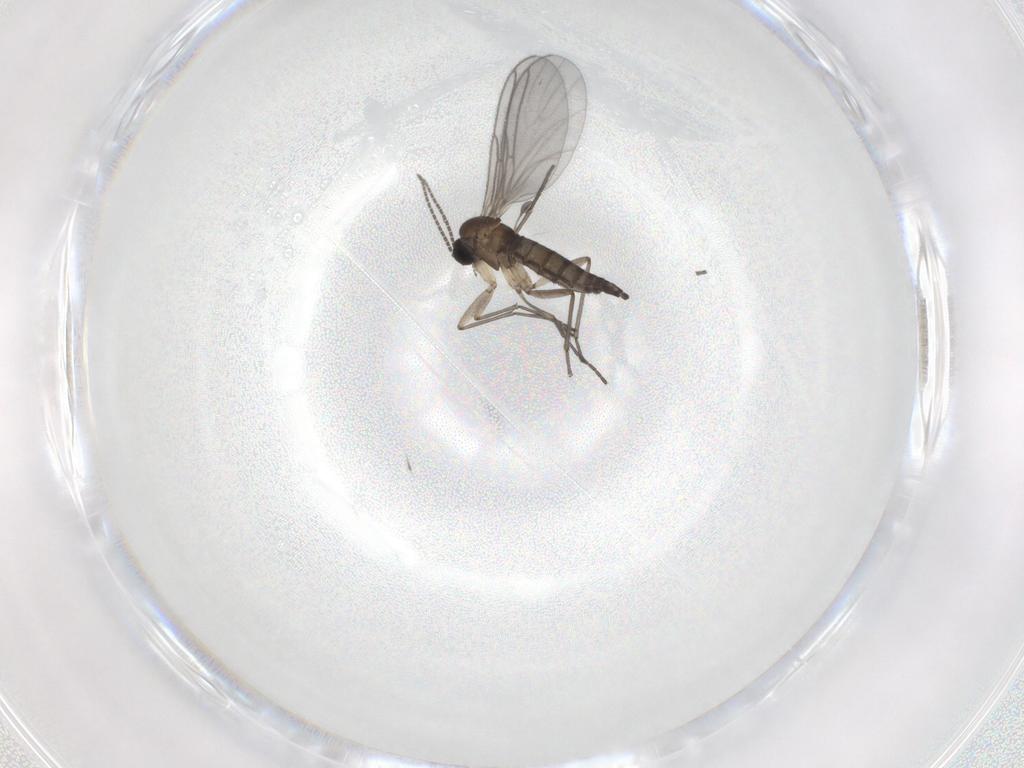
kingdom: Animalia
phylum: Arthropoda
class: Insecta
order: Diptera
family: Sciaridae
